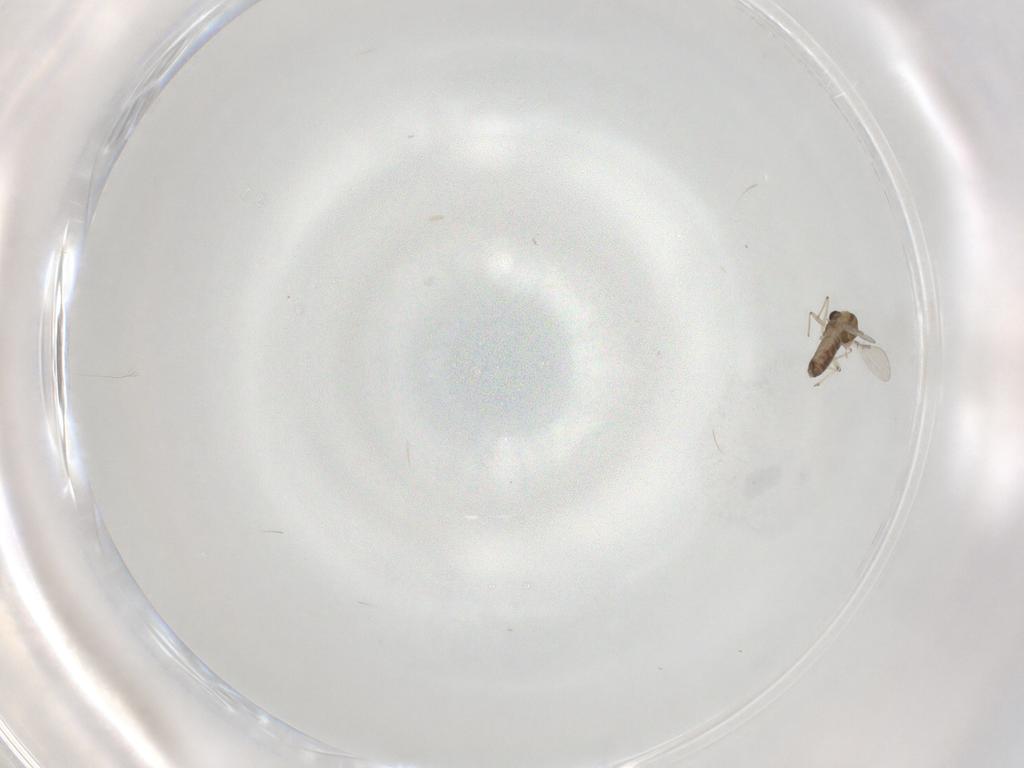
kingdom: Animalia
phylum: Arthropoda
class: Insecta
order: Diptera
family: Chironomidae
